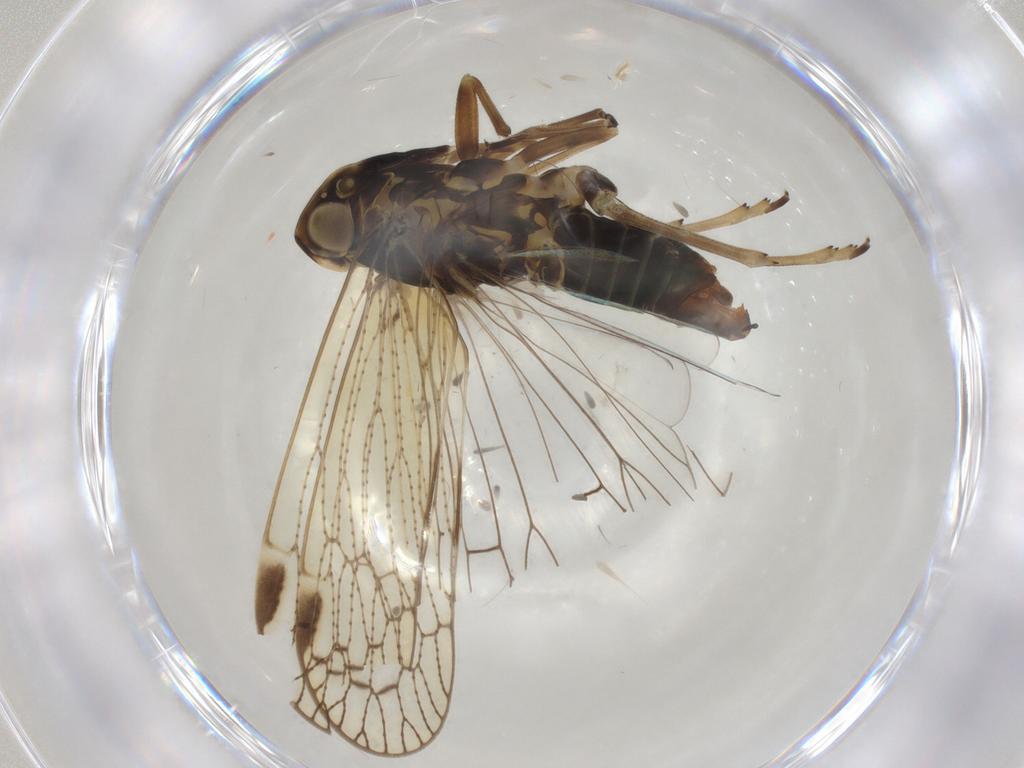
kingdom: Animalia
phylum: Arthropoda
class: Insecta
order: Hemiptera
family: Cixiidae
